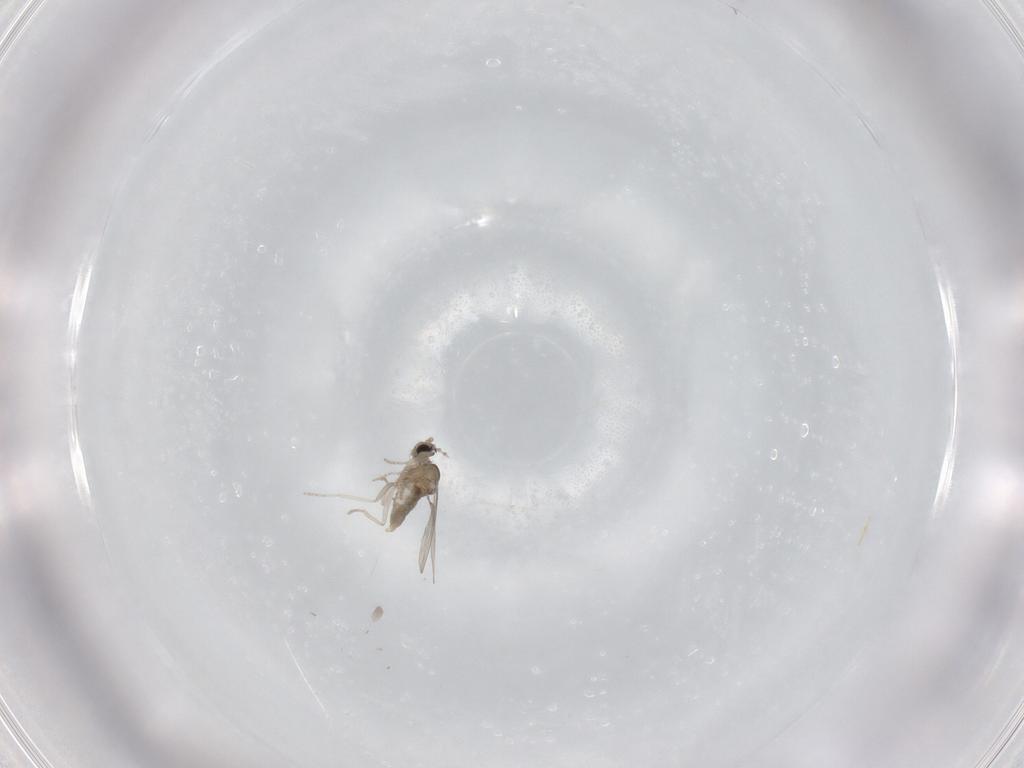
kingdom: Animalia
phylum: Arthropoda
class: Insecta
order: Diptera
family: Cecidomyiidae
